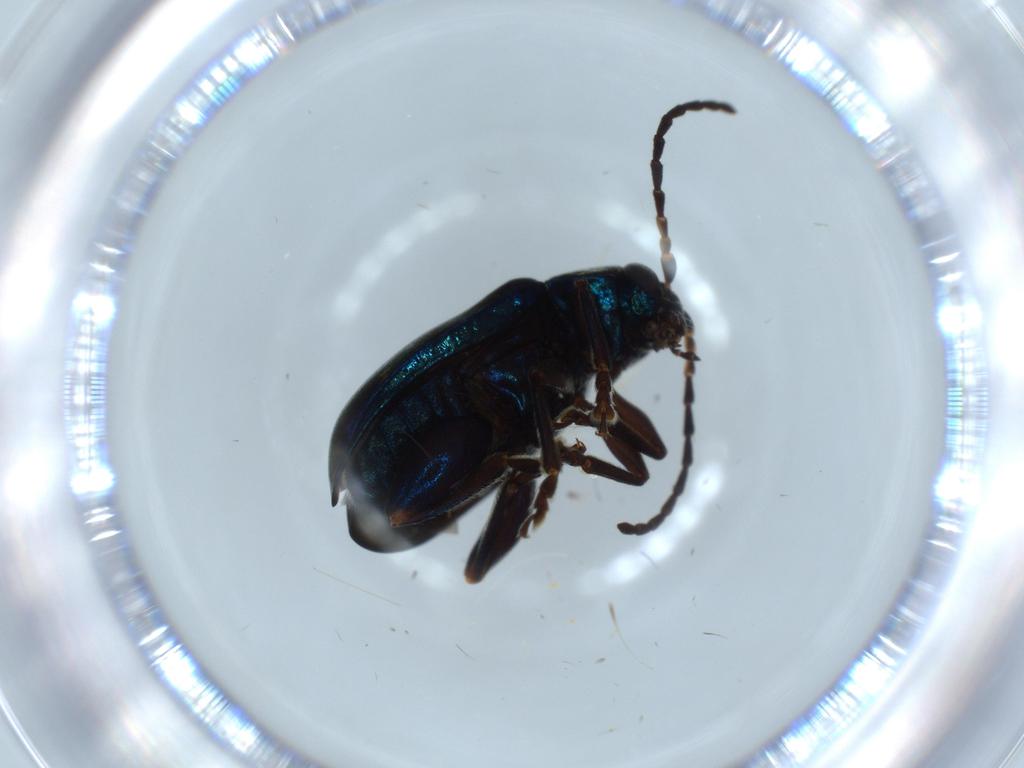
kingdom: Animalia
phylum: Arthropoda
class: Insecta
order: Coleoptera
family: Chrysomelidae
